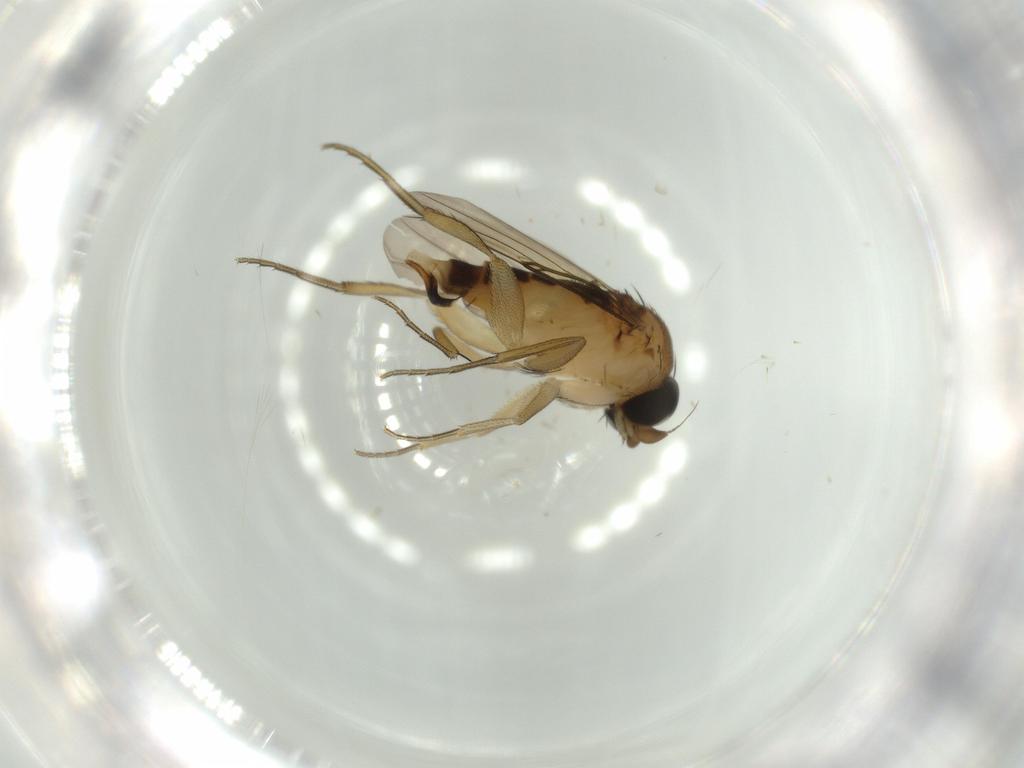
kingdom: Animalia
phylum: Arthropoda
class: Insecta
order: Diptera
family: Phoridae
